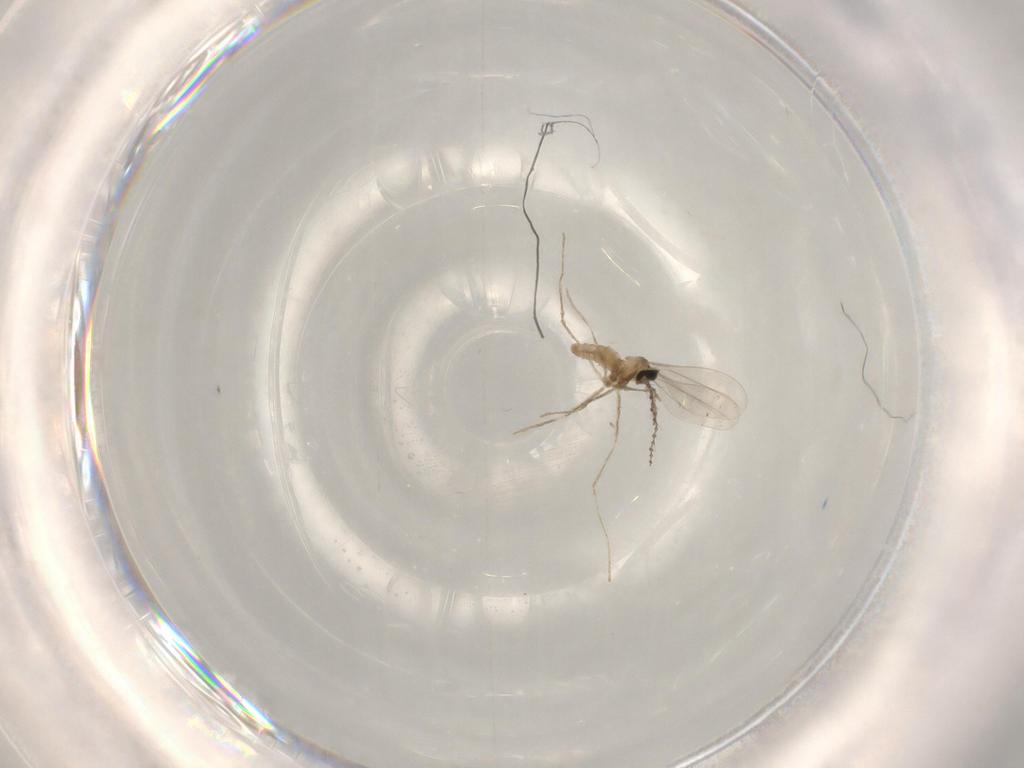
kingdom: Animalia
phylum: Arthropoda
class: Insecta
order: Diptera
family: Cecidomyiidae
